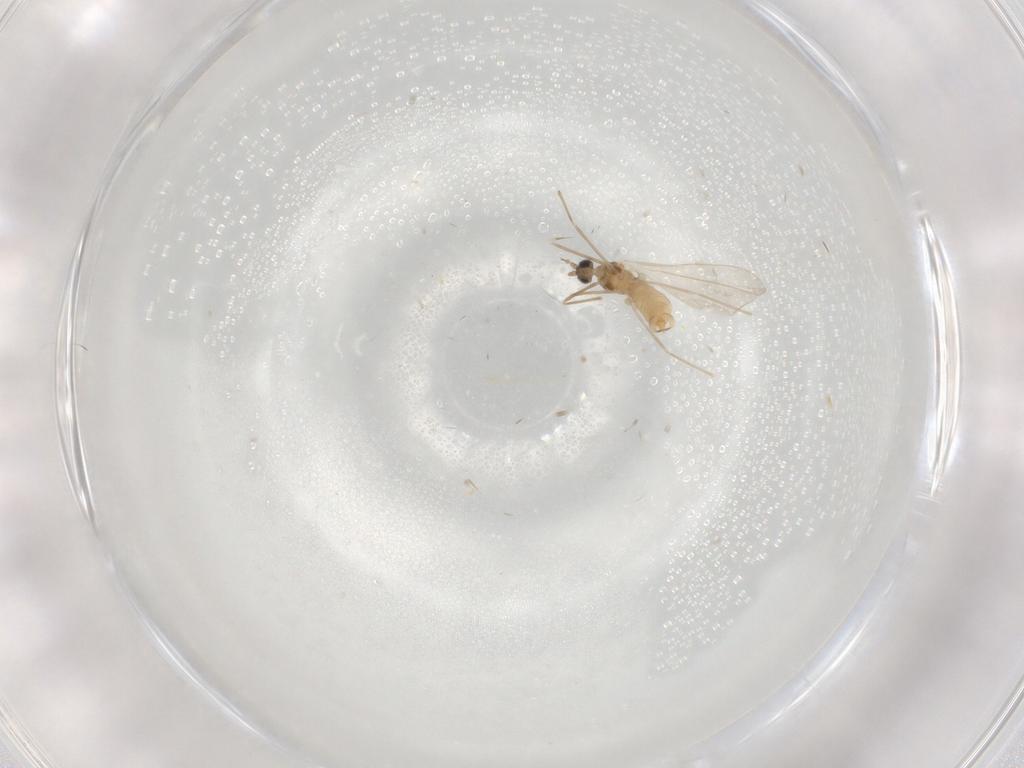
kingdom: Animalia
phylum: Arthropoda
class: Insecta
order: Diptera
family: Cecidomyiidae
